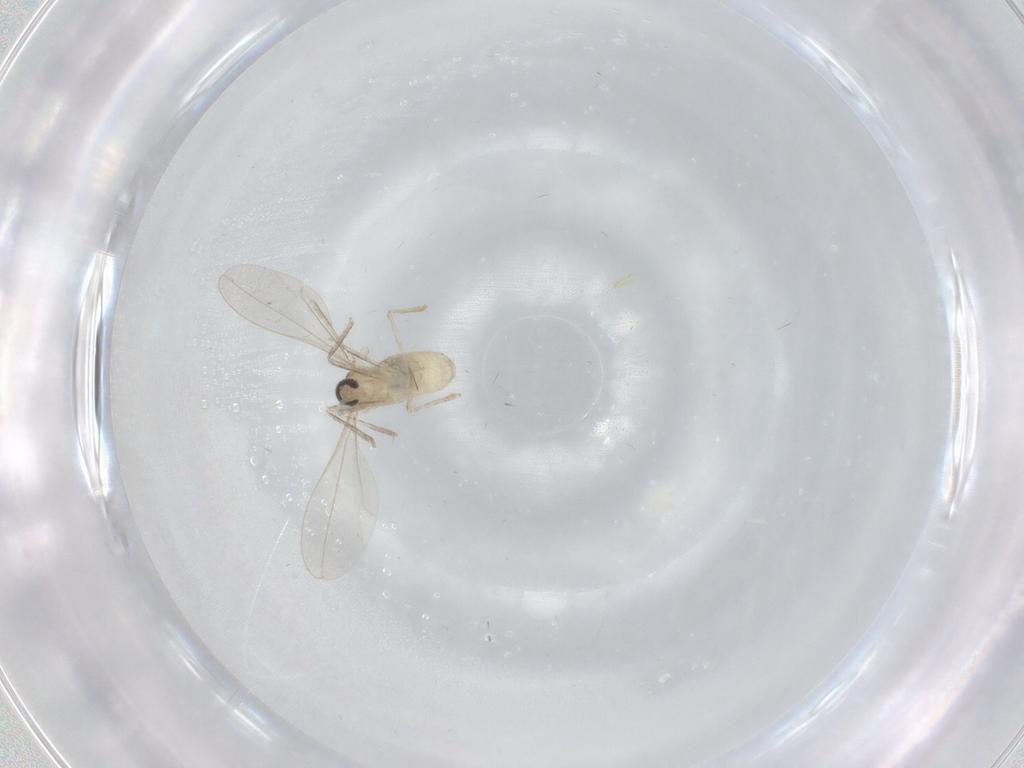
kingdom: Animalia
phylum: Arthropoda
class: Insecta
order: Diptera
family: Cecidomyiidae
